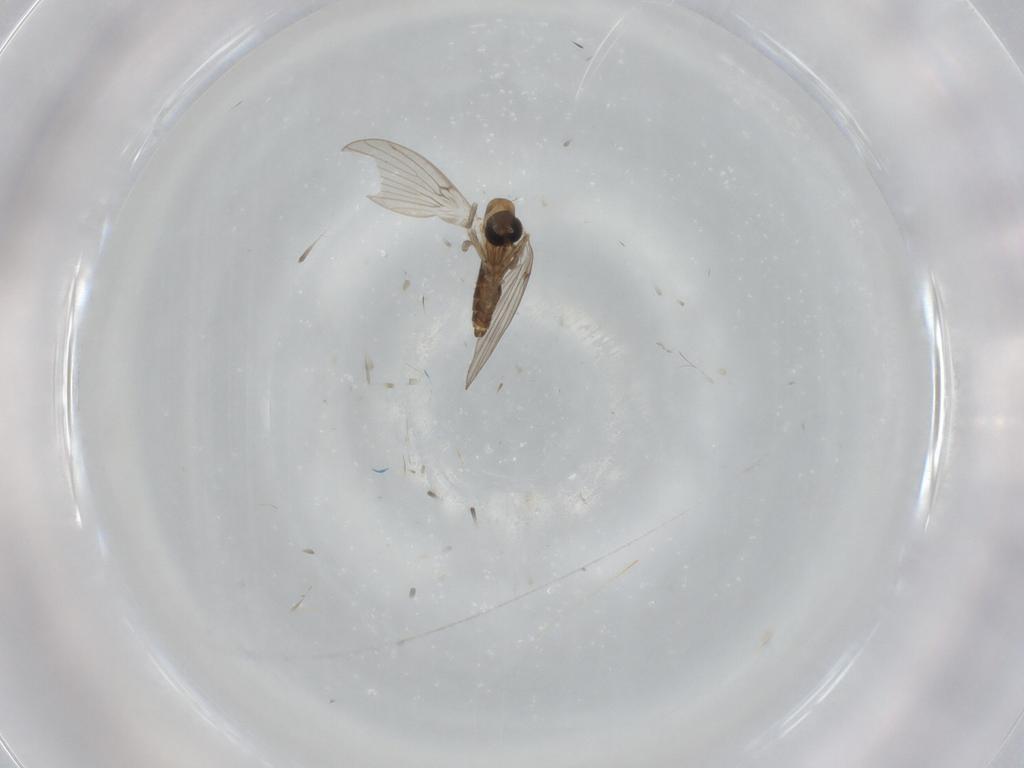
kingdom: Animalia
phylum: Arthropoda
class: Insecta
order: Diptera
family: Psychodidae
